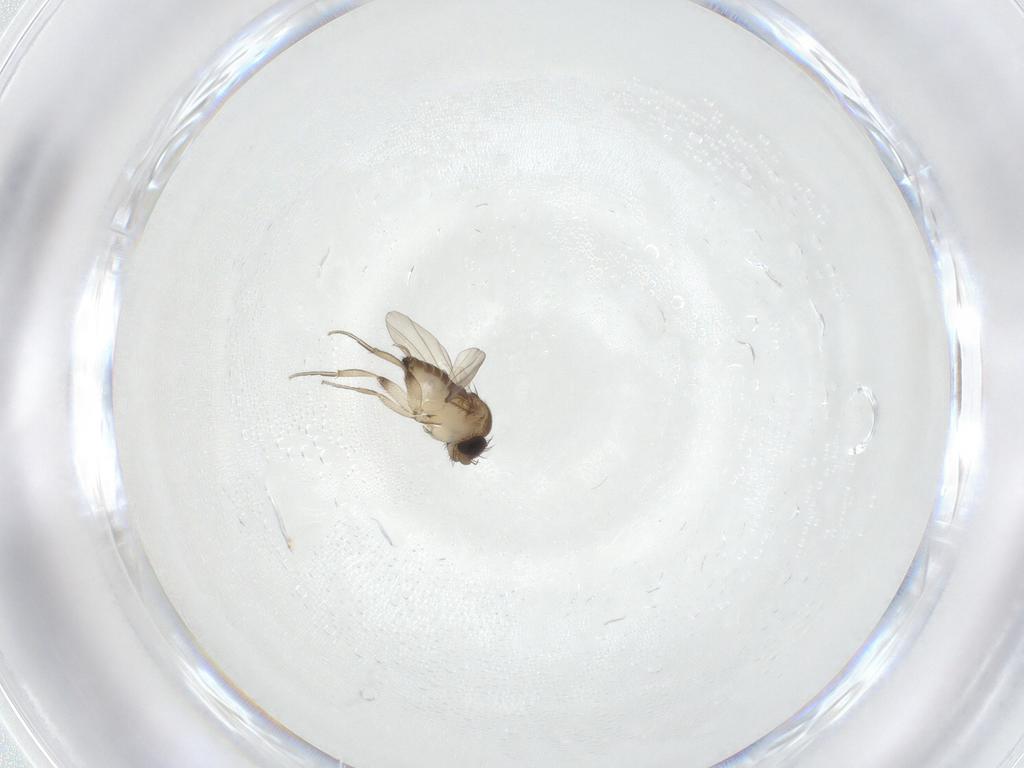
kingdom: Animalia
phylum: Arthropoda
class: Insecta
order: Diptera
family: Phoridae
